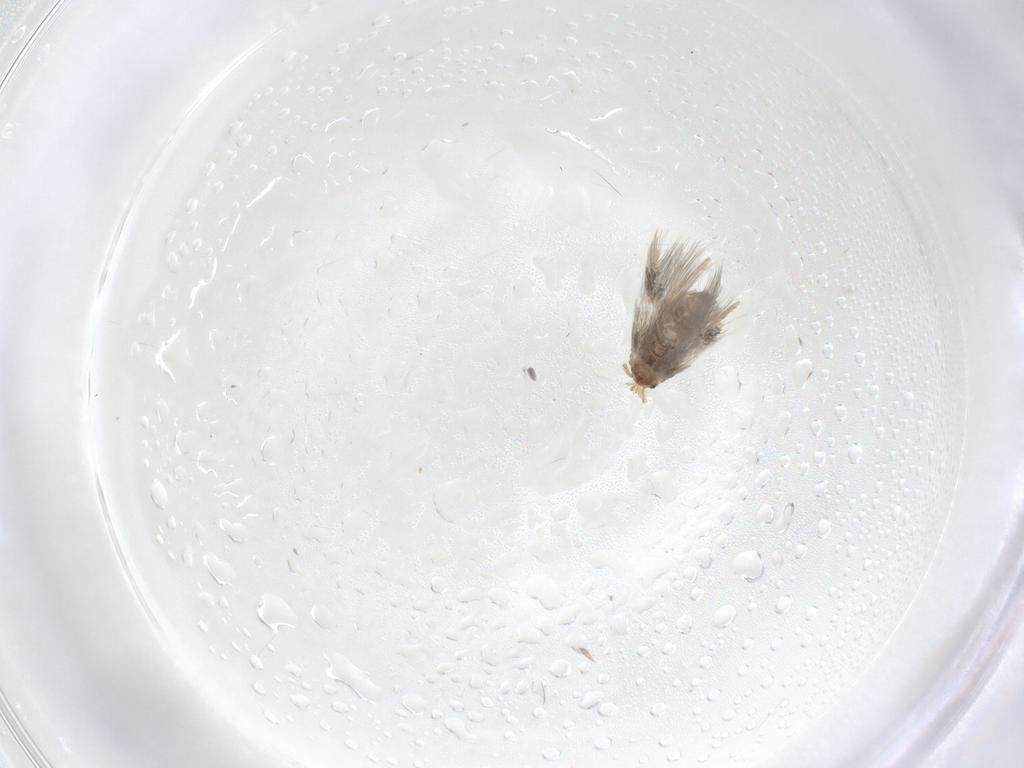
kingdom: Animalia
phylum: Arthropoda
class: Insecta
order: Lepidoptera
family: Nepticulidae
